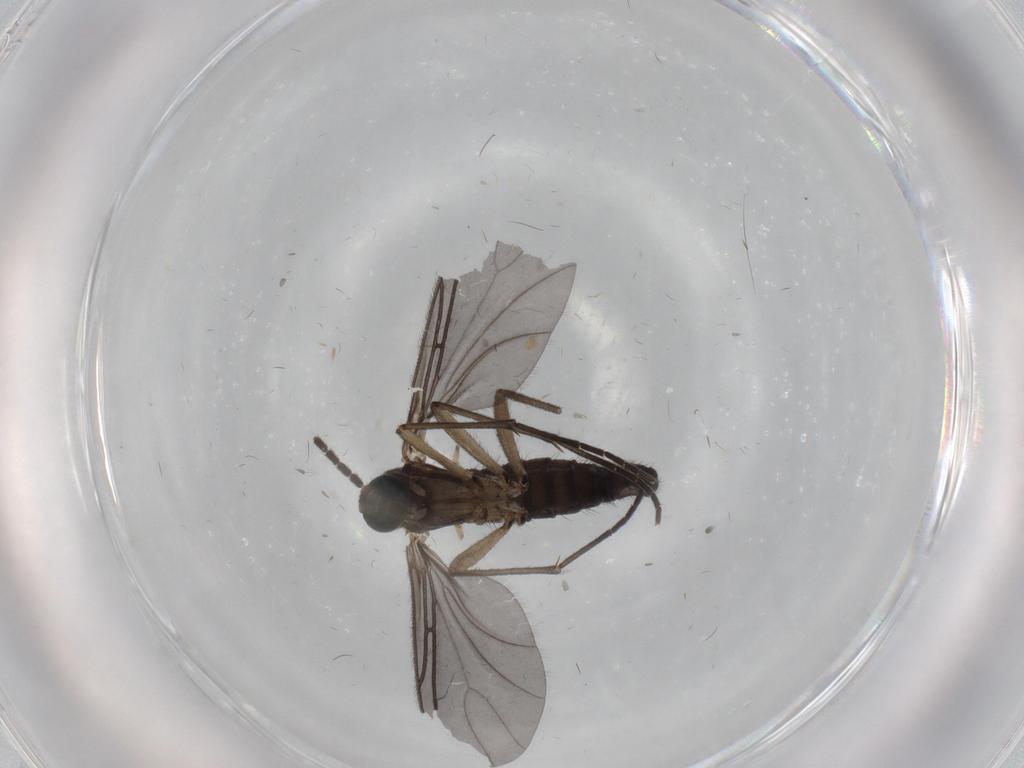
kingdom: Animalia
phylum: Arthropoda
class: Insecta
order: Diptera
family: Sciaridae
